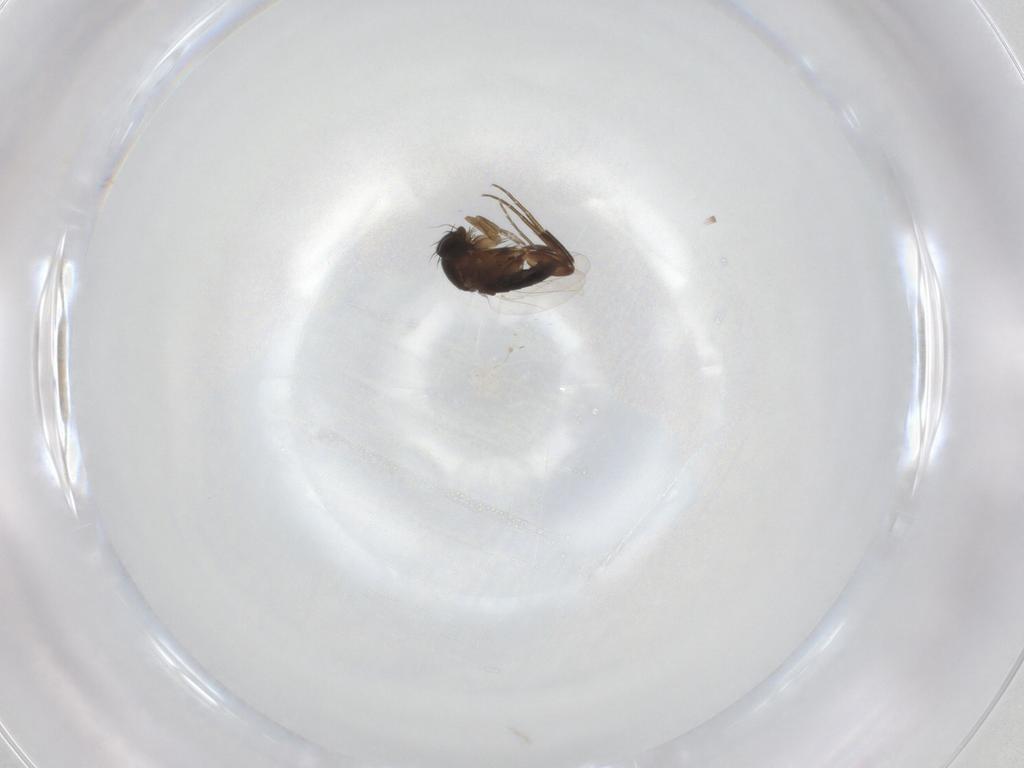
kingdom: Animalia
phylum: Arthropoda
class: Insecta
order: Diptera
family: Phoridae
